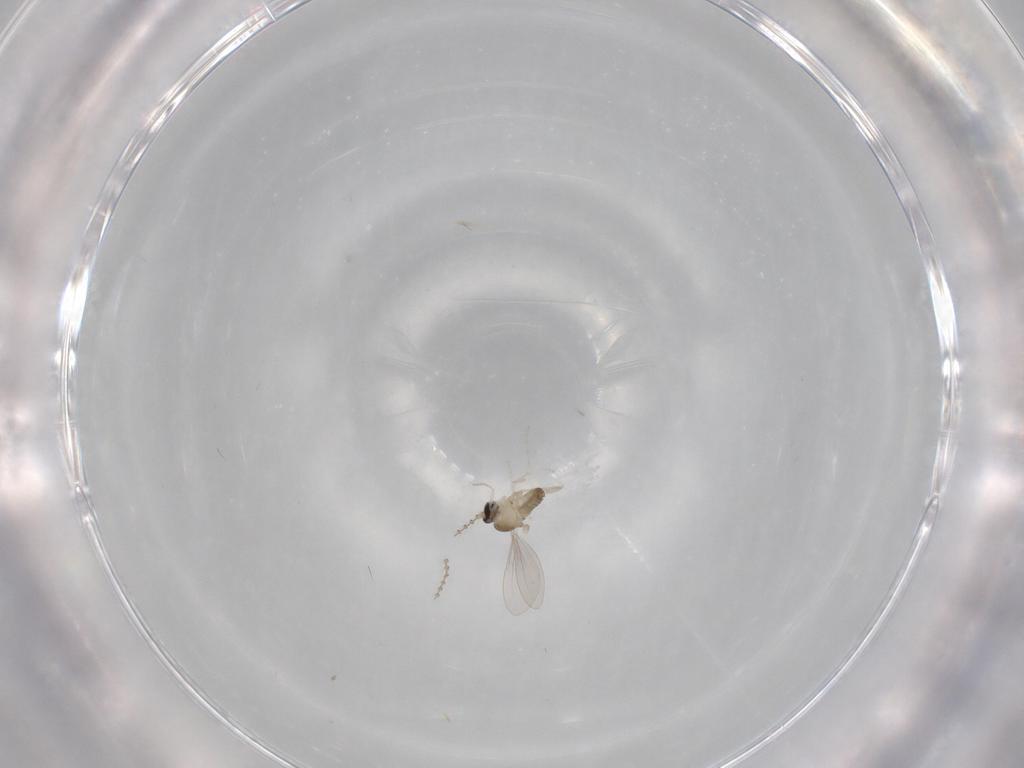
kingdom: Animalia
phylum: Arthropoda
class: Insecta
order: Diptera
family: Cecidomyiidae
